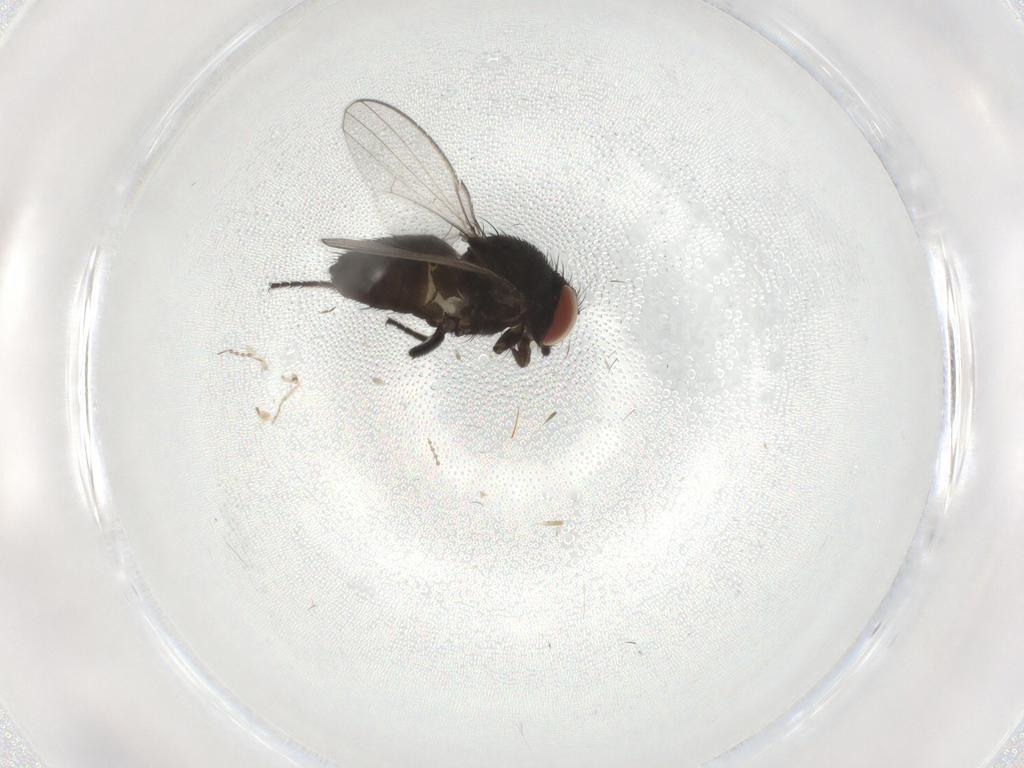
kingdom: Animalia
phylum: Arthropoda
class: Insecta
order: Diptera
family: Milichiidae
